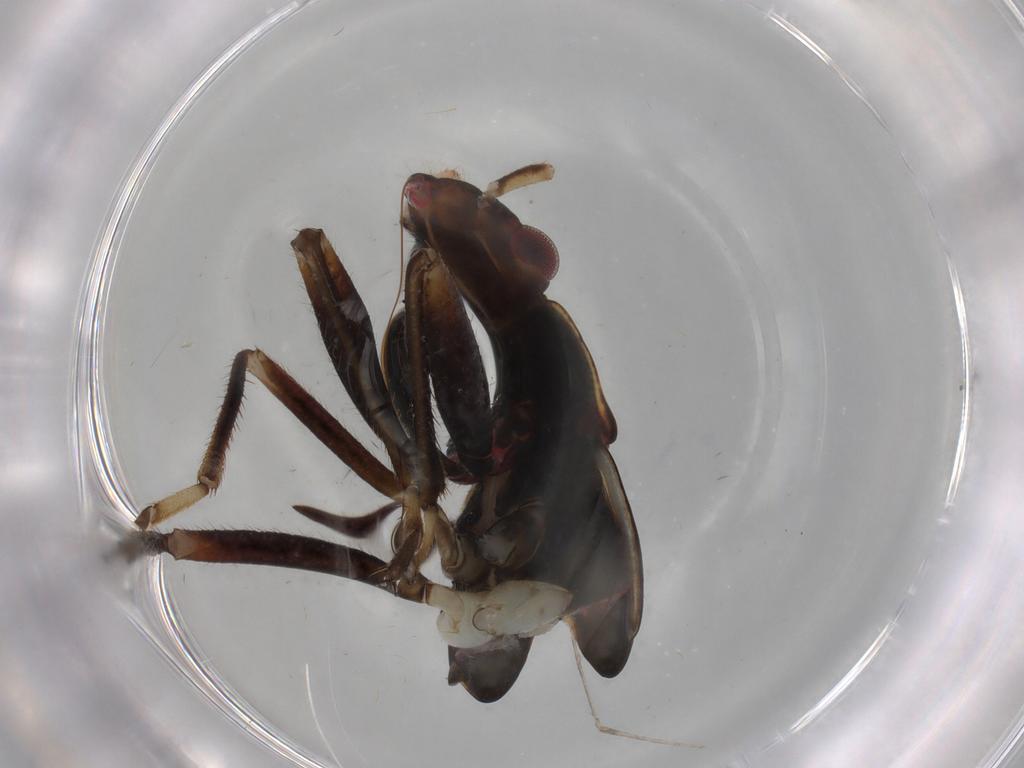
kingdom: Animalia
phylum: Arthropoda
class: Insecta
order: Hemiptera
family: Rhyparochromidae
